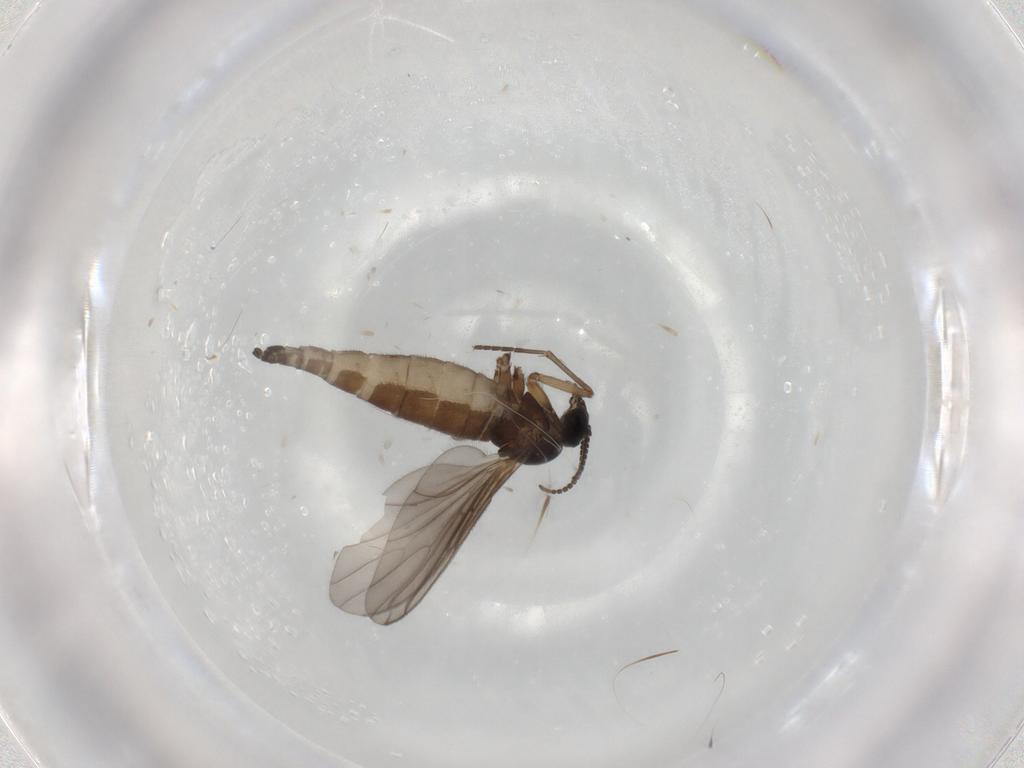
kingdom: Animalia
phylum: Arthropoda
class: Insecta
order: Diptera
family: Sciaridae
